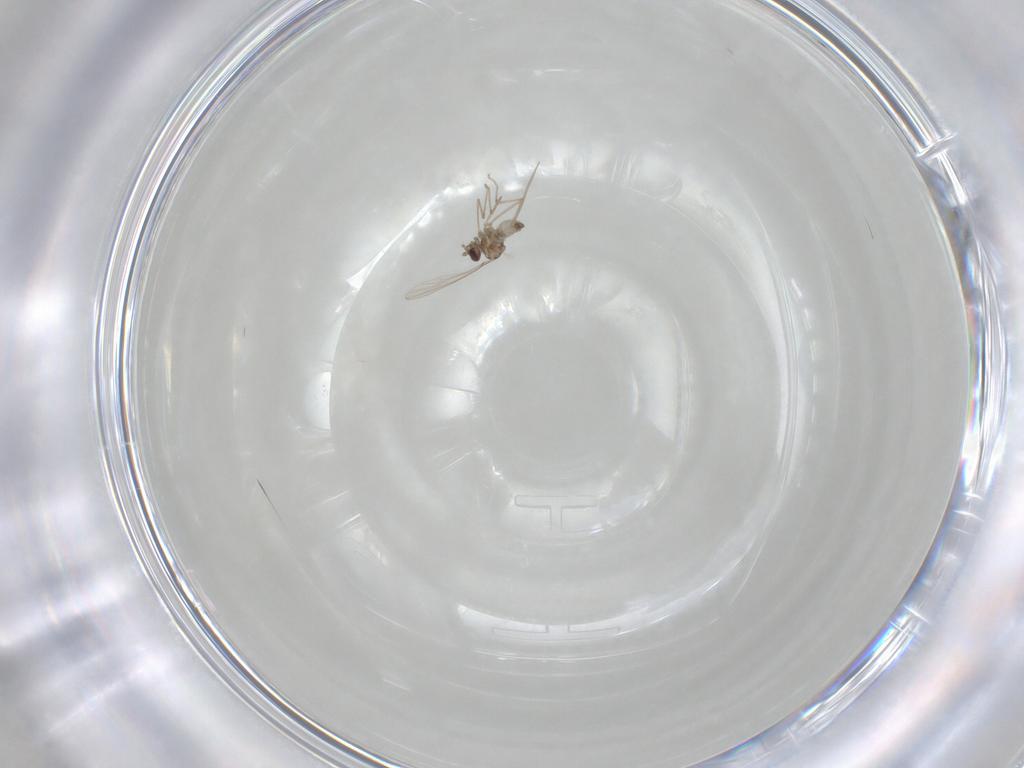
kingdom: Animalia
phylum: Arthropoda
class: Insecta
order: Diptera
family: Cecidomyiidae
